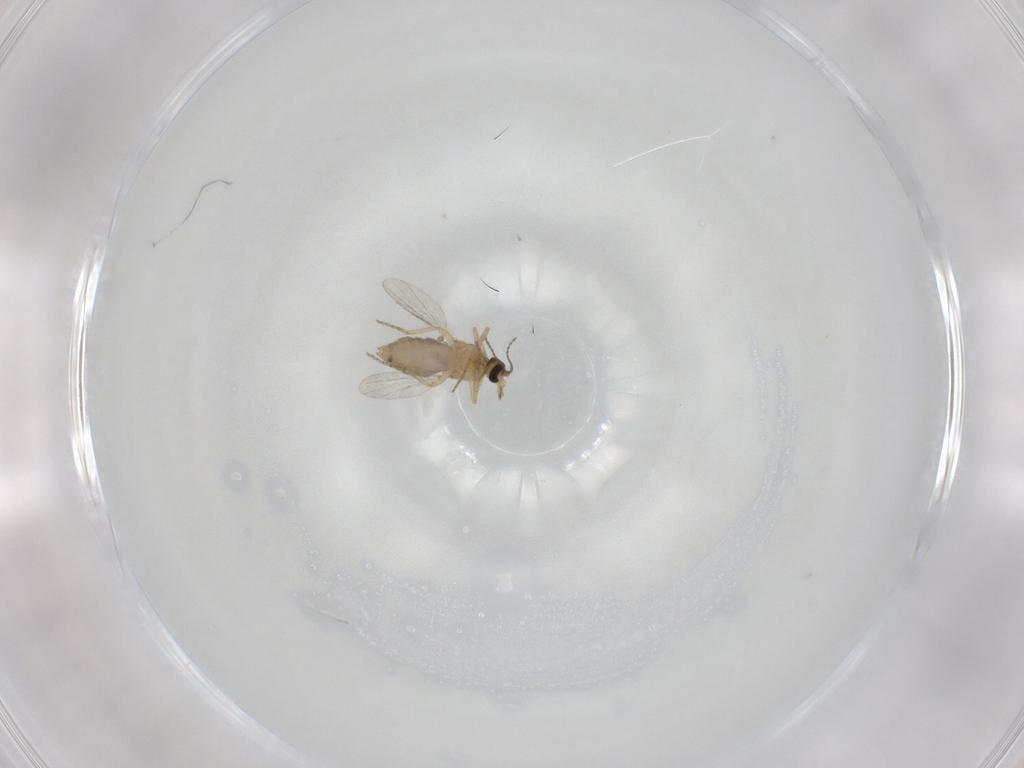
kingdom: Animalia
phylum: Arthropoda
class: Insecta
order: Diptera
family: Ceratopogonidae
